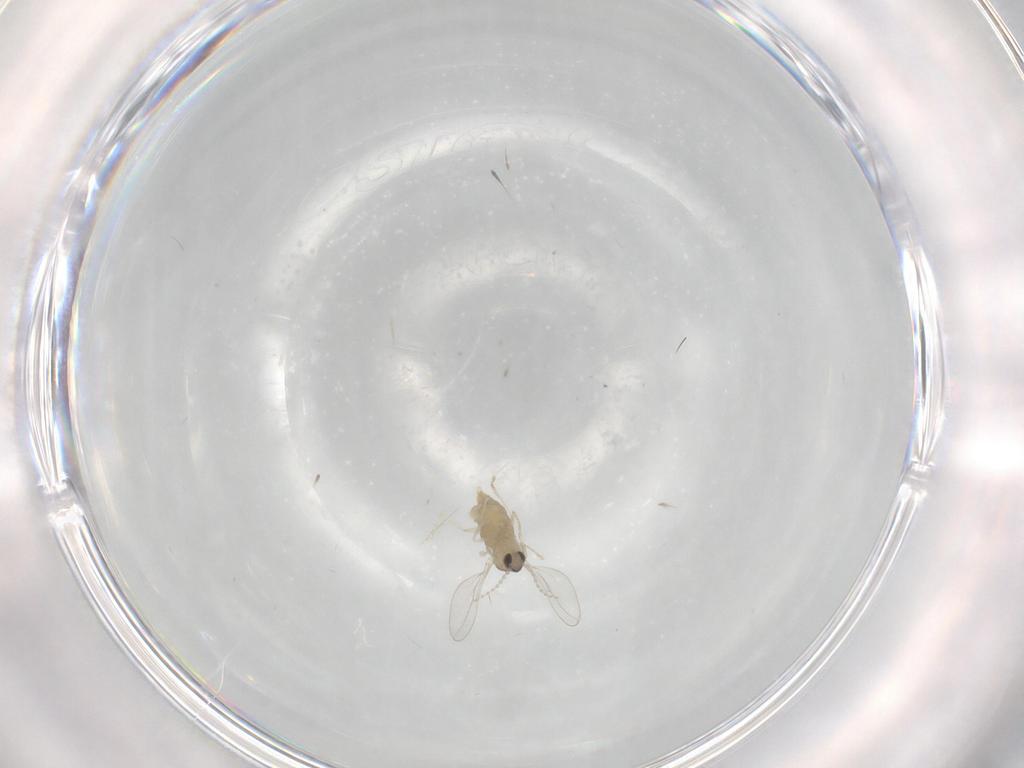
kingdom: Animalia
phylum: Arthropoda
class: Insecta
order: Diptera
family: Cecidomyiidae
